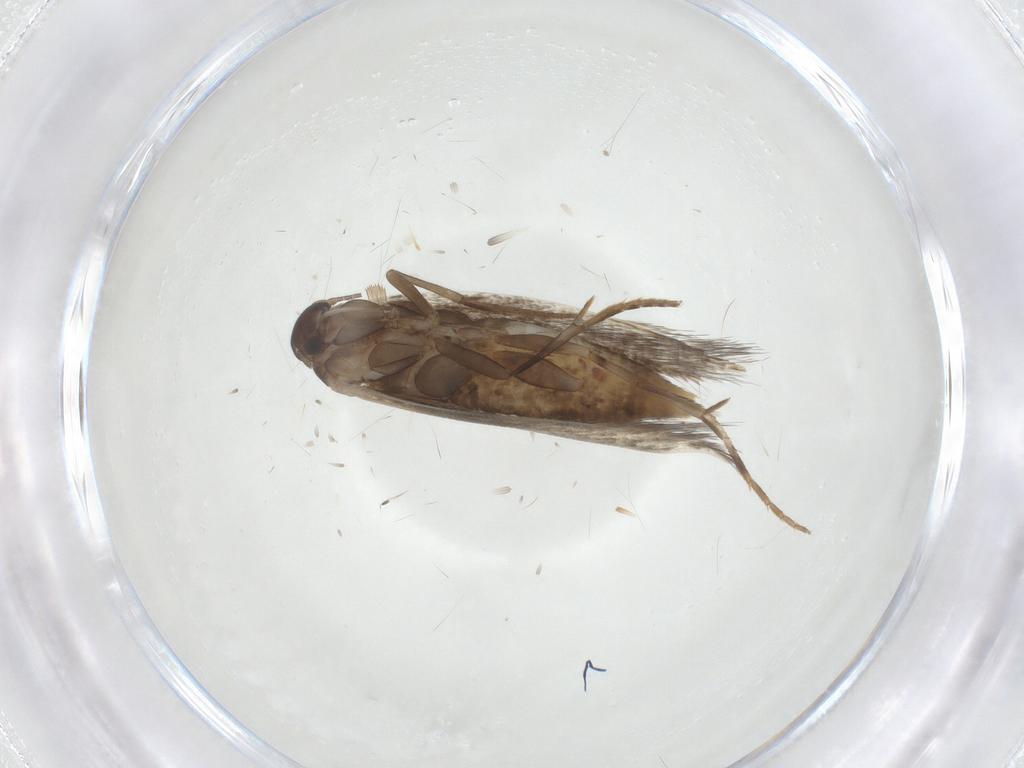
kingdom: Animalia
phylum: Arthropoda
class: Insecta
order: Lepidoptera
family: Elachistidae
